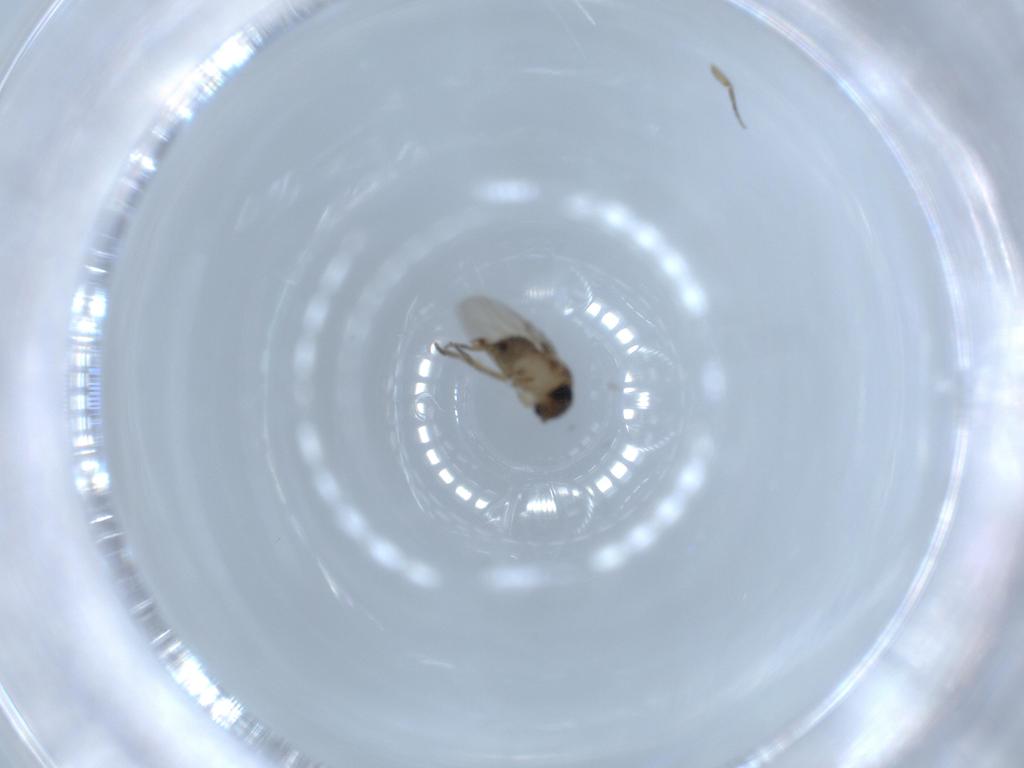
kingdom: Animalia
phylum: Arthropoda
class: Insecta
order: Diptera
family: Phoridae
